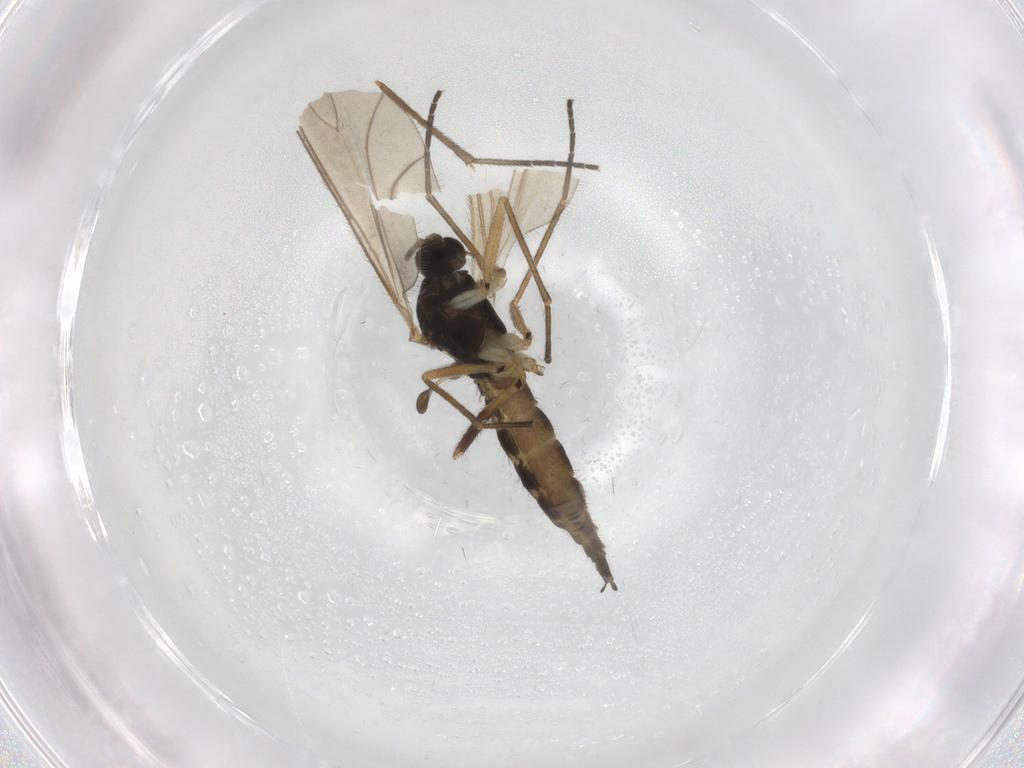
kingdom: Animalia
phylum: Arthropoda
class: Insecta
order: Diptera
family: Sciaridae
